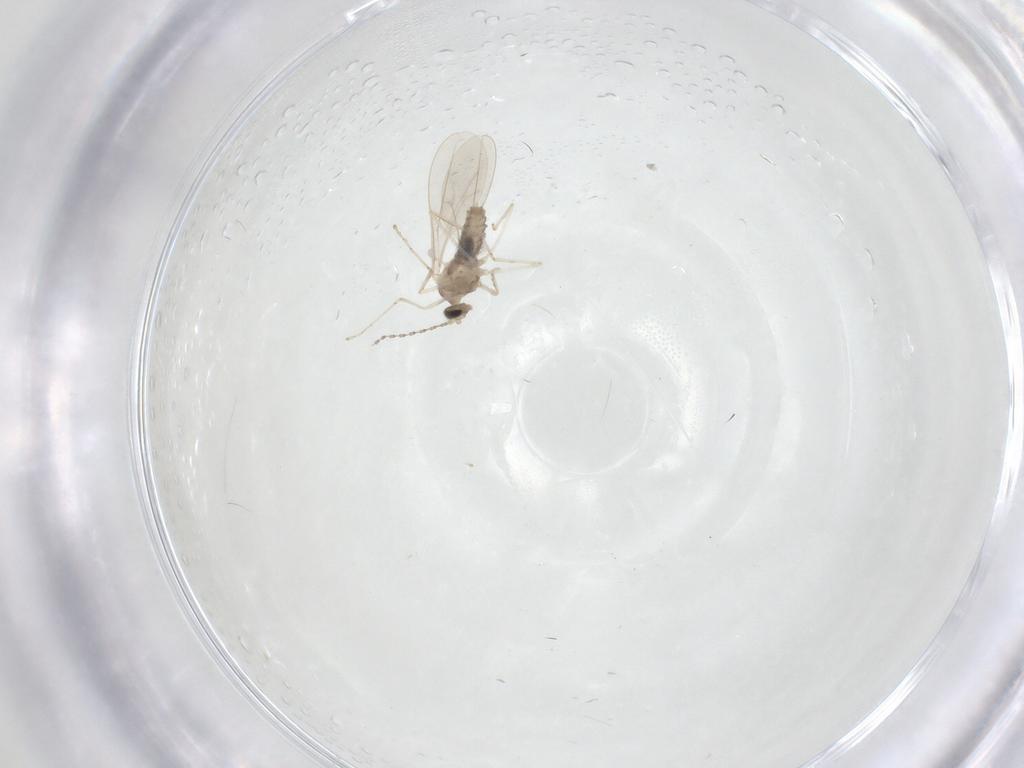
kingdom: Animalia
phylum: Arthropoda
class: Insecta
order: Diptera
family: Cecidomyiidae
